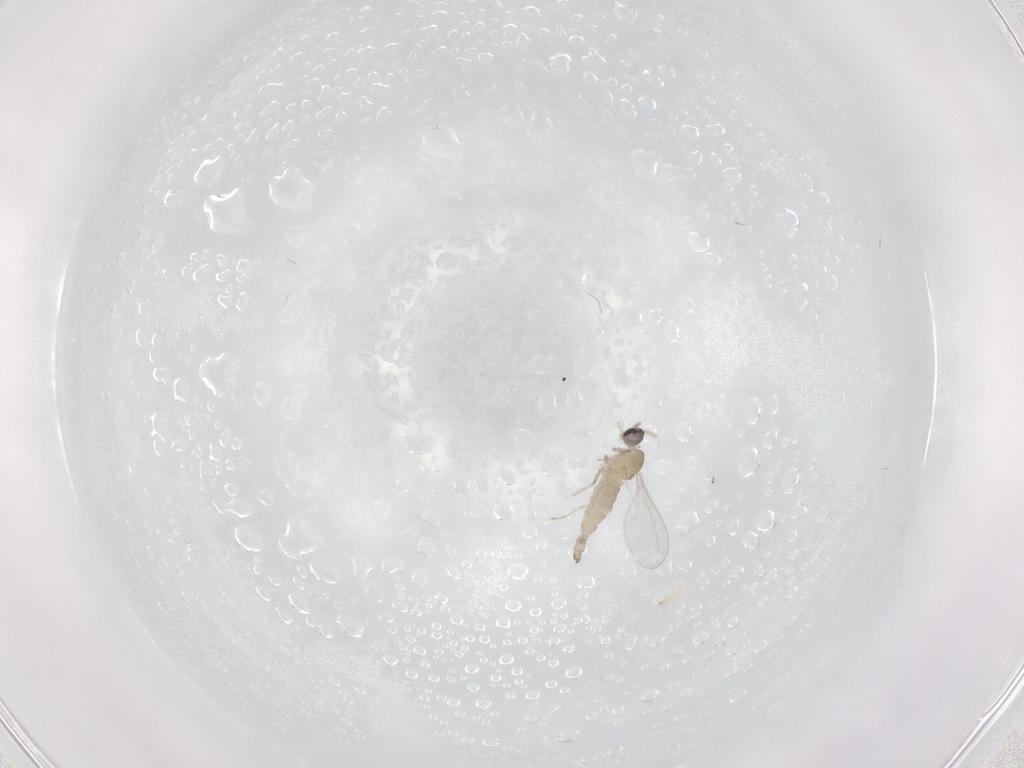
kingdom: Animalia
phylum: Arthropoda
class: Insecta
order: Diptera
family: Cecidomyiidae
